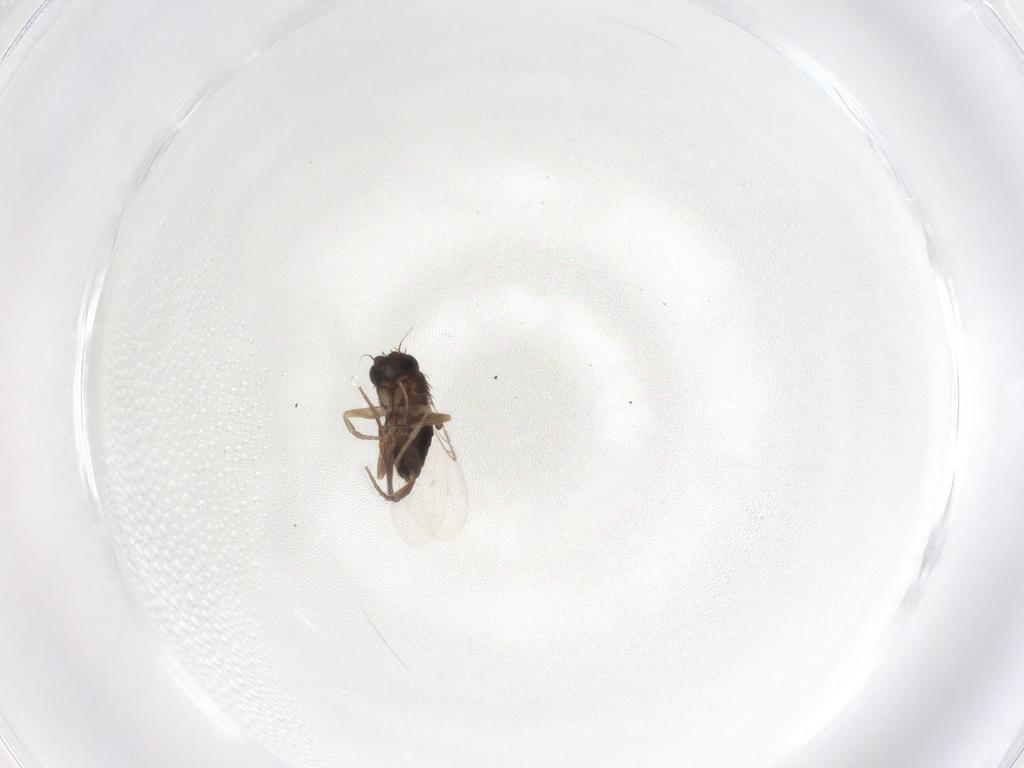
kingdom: Animalia
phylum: Arthropoda
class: Insecta
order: Diptera
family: Phoridae
